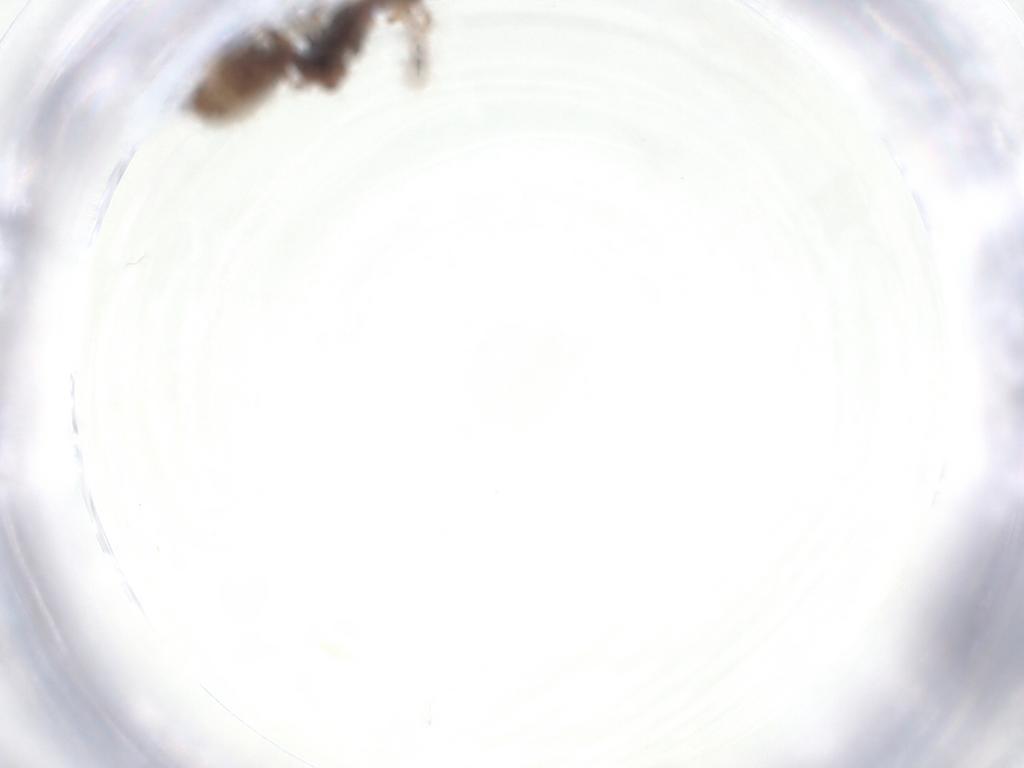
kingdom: Animalia
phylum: Arthropoda
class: Insecta
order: Hymenoptera
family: Formicidae
